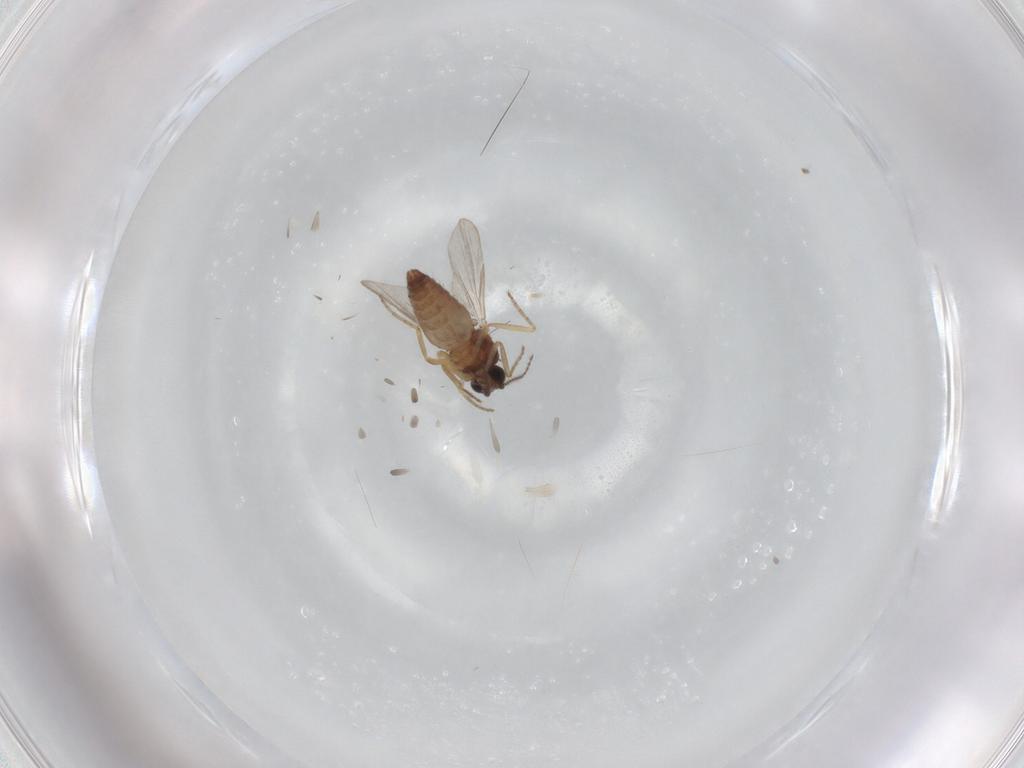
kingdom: Animalia
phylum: Arthropoda
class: Insecta
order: Diptera
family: Ceratopogonidae
